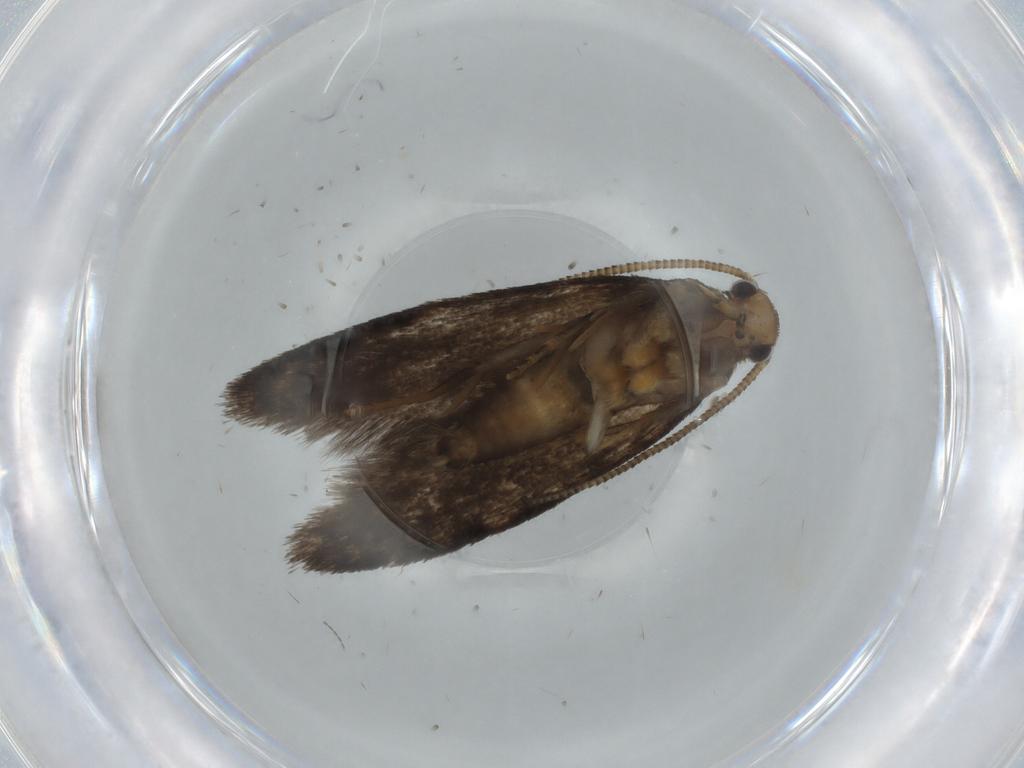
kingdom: Animalia
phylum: Arthropoda
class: Insecta
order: Lepidoptera
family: Tineidae
